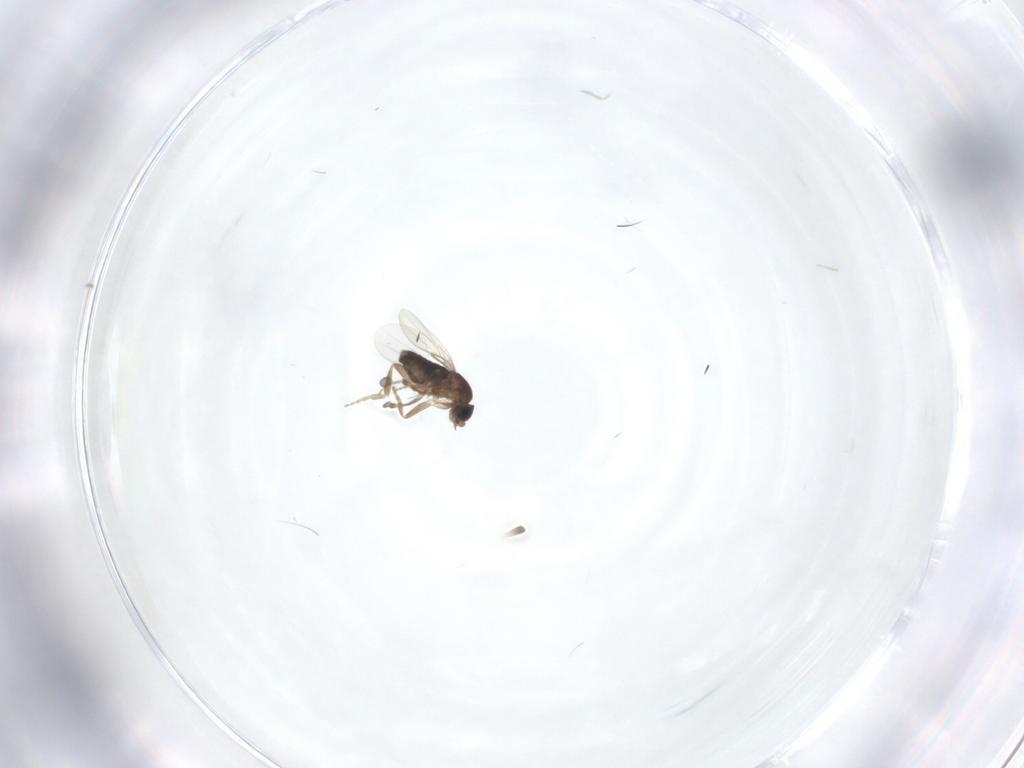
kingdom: Animalia
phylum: Arthropoda
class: Insecta
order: Diptera
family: Phoridae
